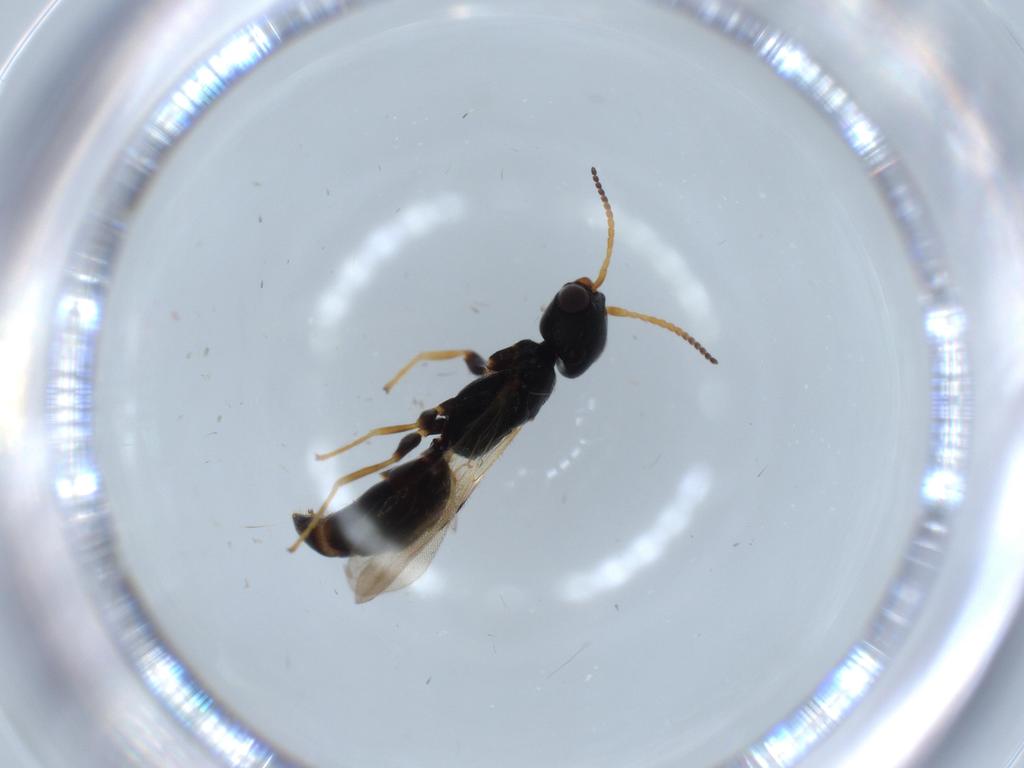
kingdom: Animalia
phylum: Arthropoda
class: Insecta
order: Hymenoptera
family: Bethylidae
